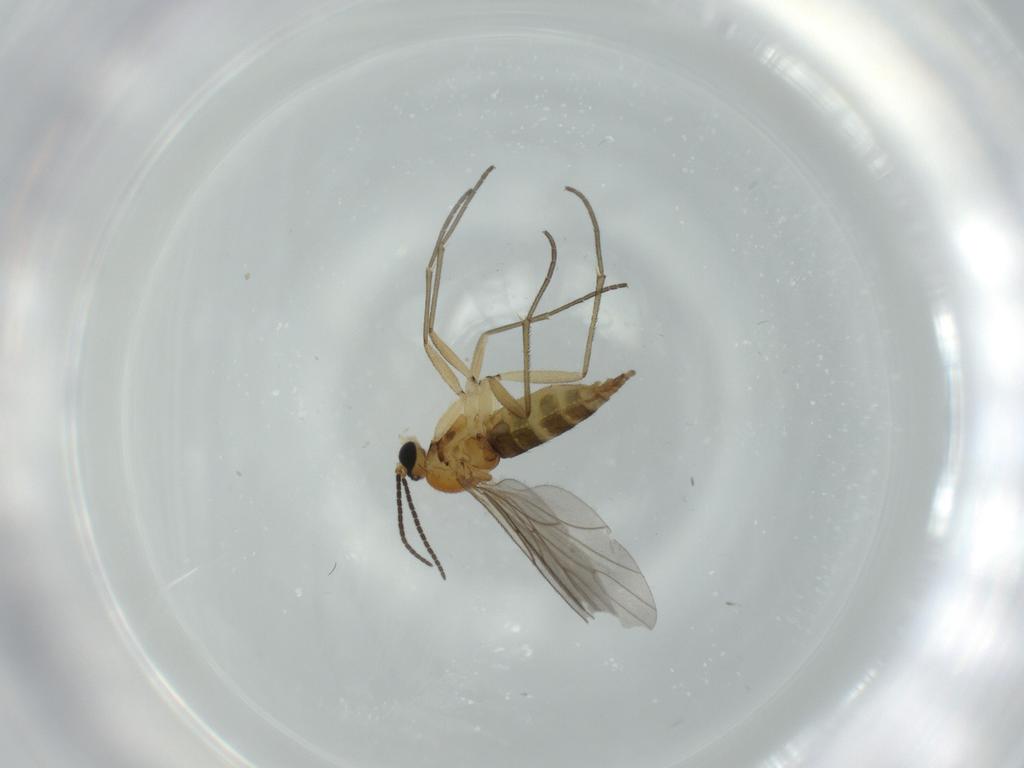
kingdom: Animalia
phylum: Arthropoda
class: Insecta
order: Diptera
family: Sciaridae
